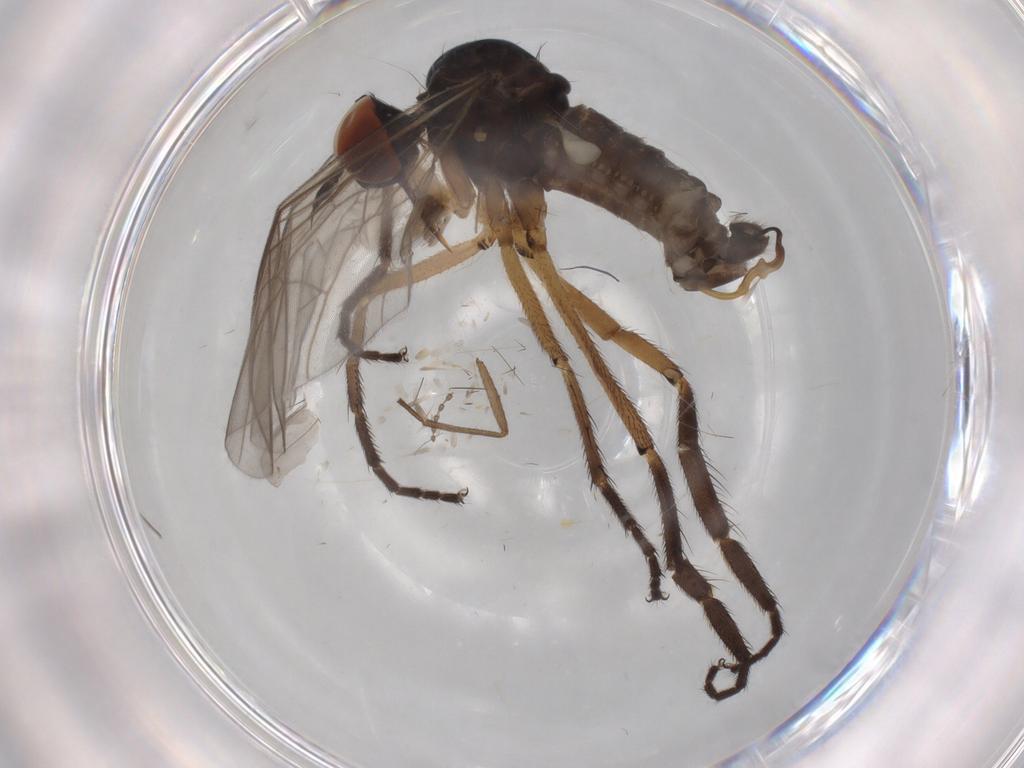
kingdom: Animalia
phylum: Arthropoda
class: Insecta
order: Diptera
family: Empididae
